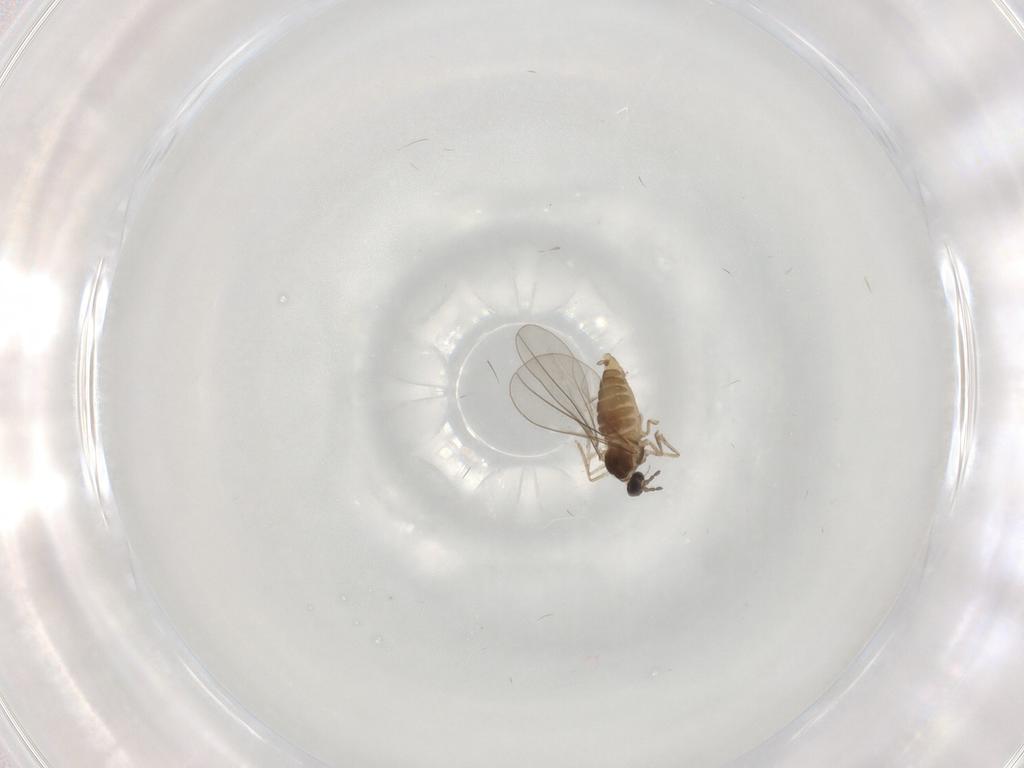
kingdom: Animalia
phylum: Arthropoda
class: Insecta
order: Diptera
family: Cecidomyiidae
